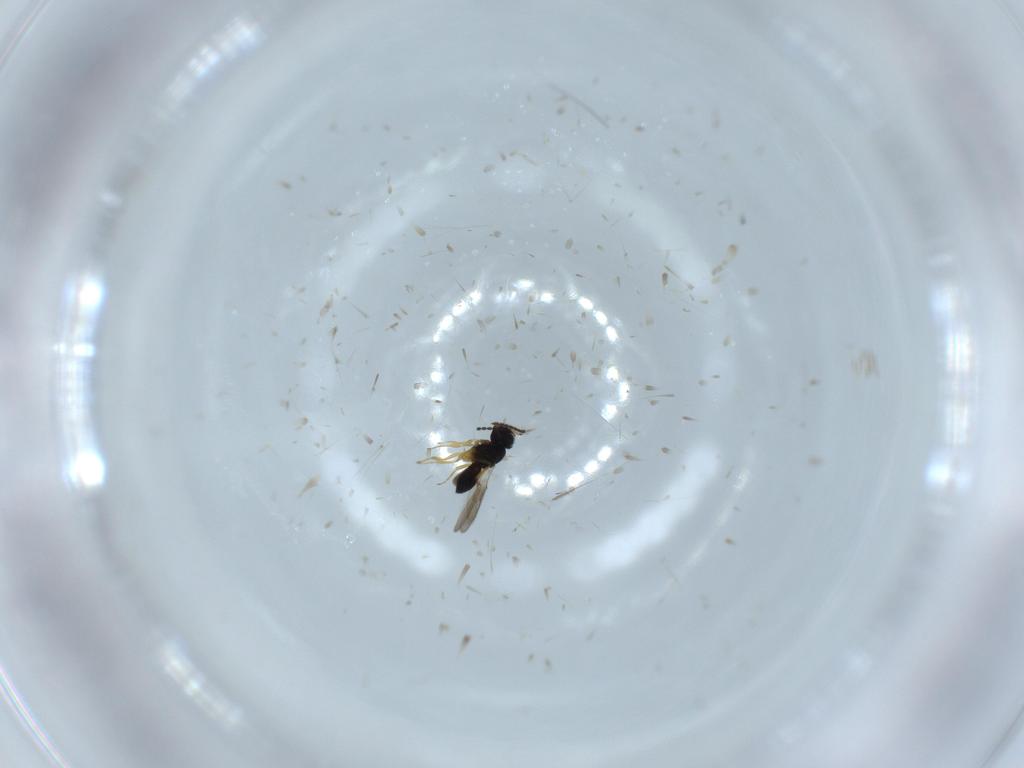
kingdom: Animalia
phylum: Arthropoda
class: Insecta
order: Hymenoptera
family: Scelionidae
